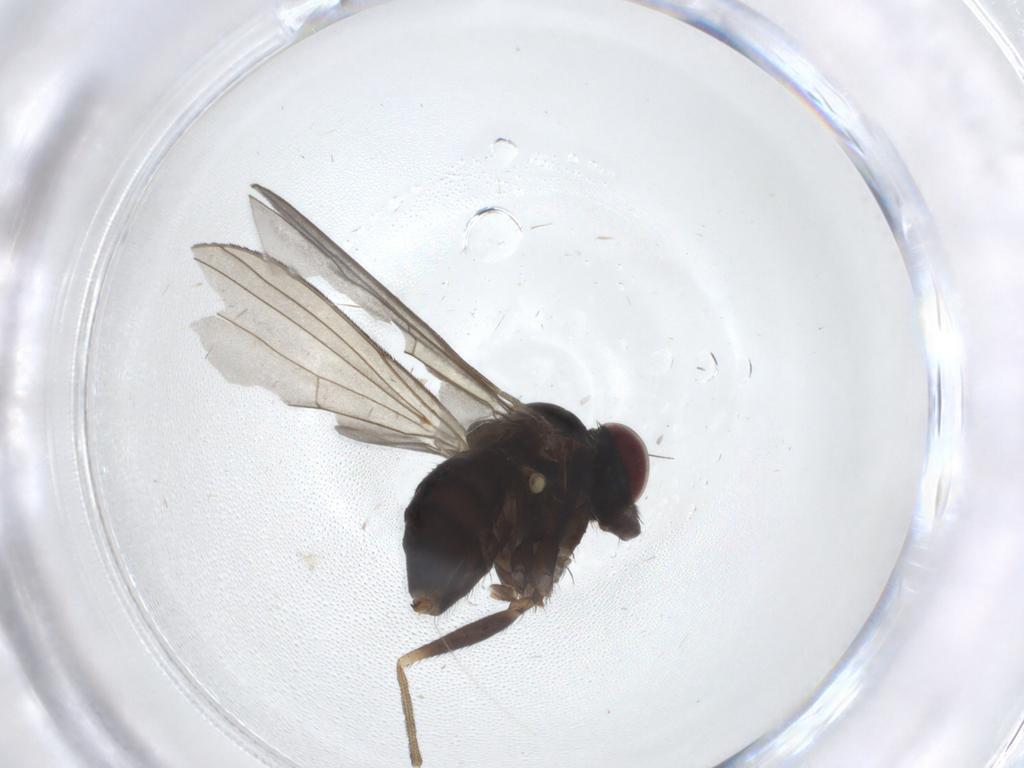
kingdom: Animalia
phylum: Arthropoda
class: Insecta
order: Diptera
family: Dolichopodidae
